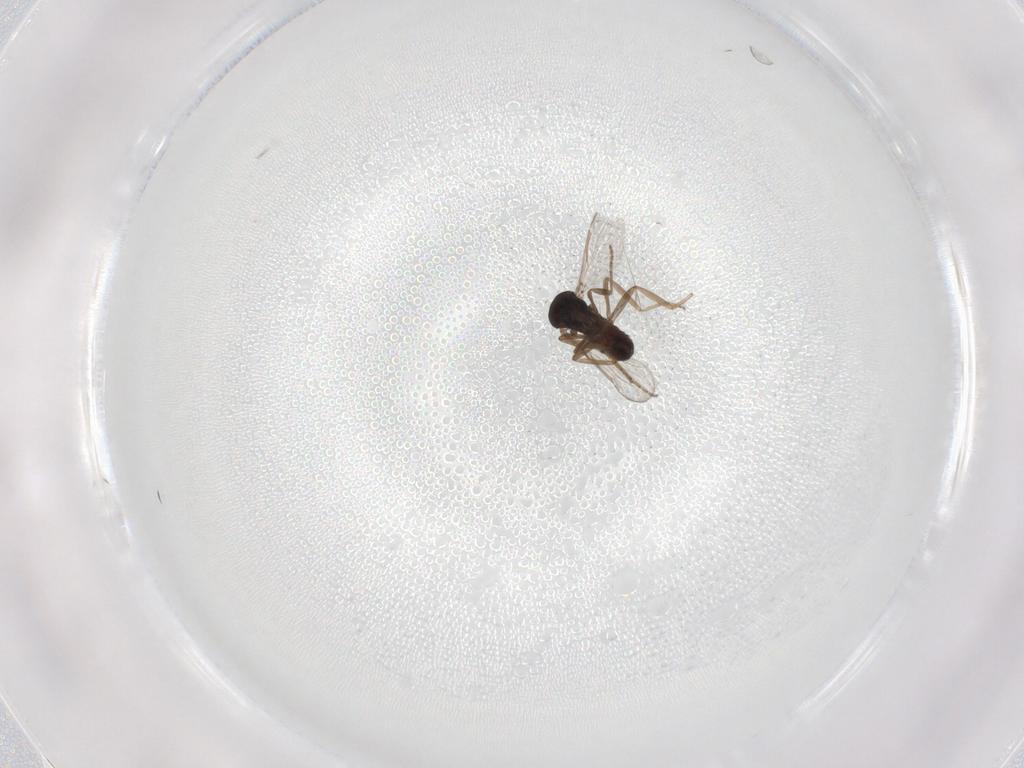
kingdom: Animalia
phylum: Arthropoda
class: Insecta
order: Diptera
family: Ceratopogonidae
